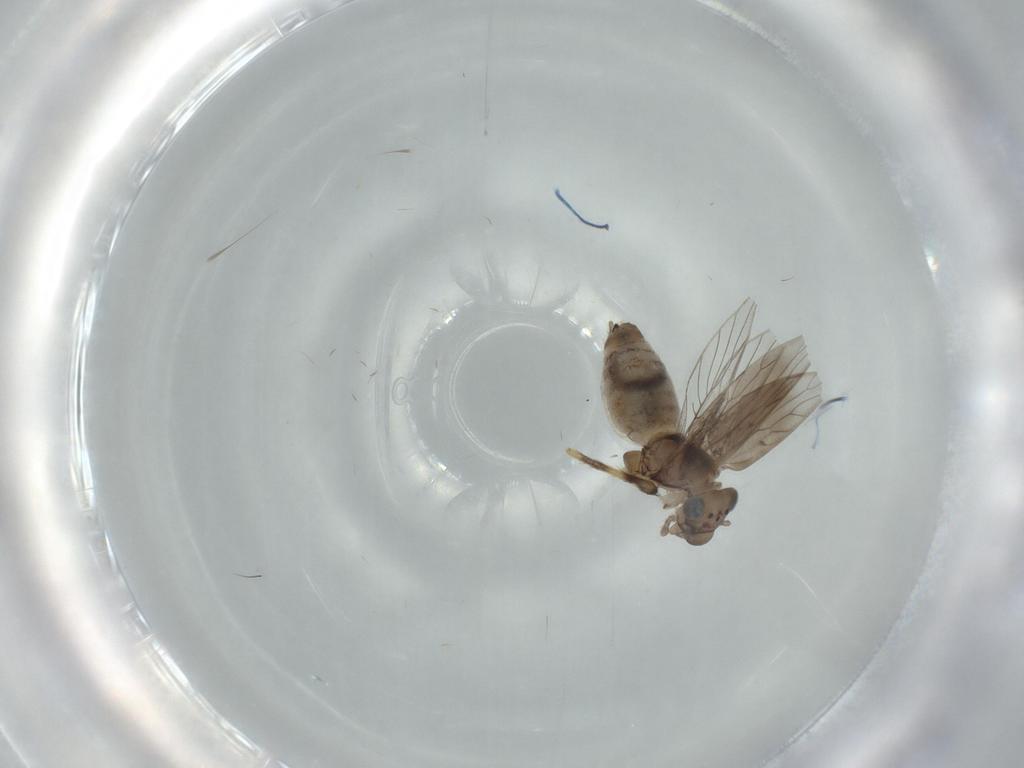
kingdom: Animalia
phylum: Arthropoda
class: Insecta
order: Psocodea
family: Lepidopsocidae
